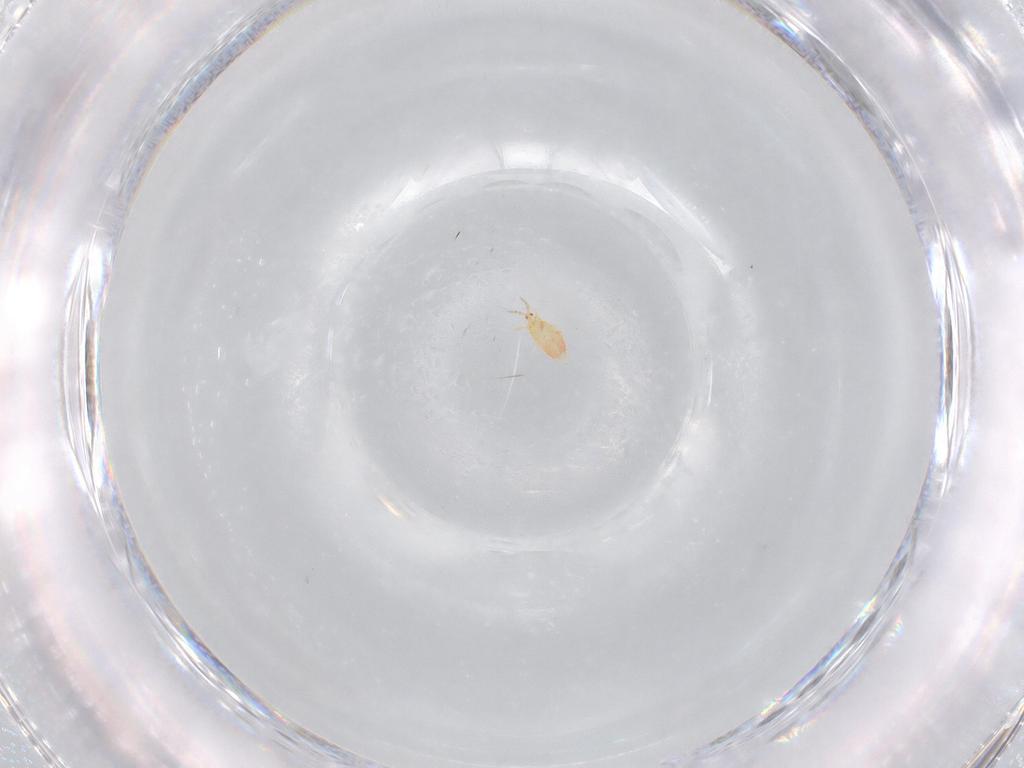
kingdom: Animalia
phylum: Arthropoda
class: Insecta
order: Thysanoptera
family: Heterothripidae
